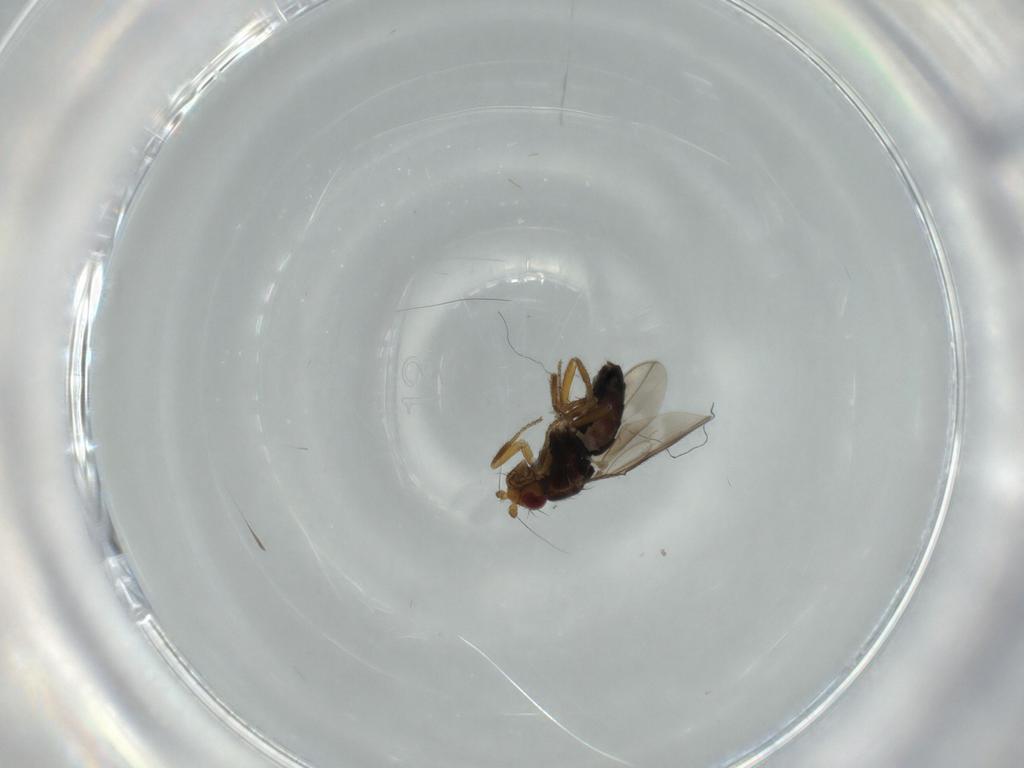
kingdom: Animalia
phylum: Arthropoda
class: Insecta
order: Diptera
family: Sphaeroceridae
